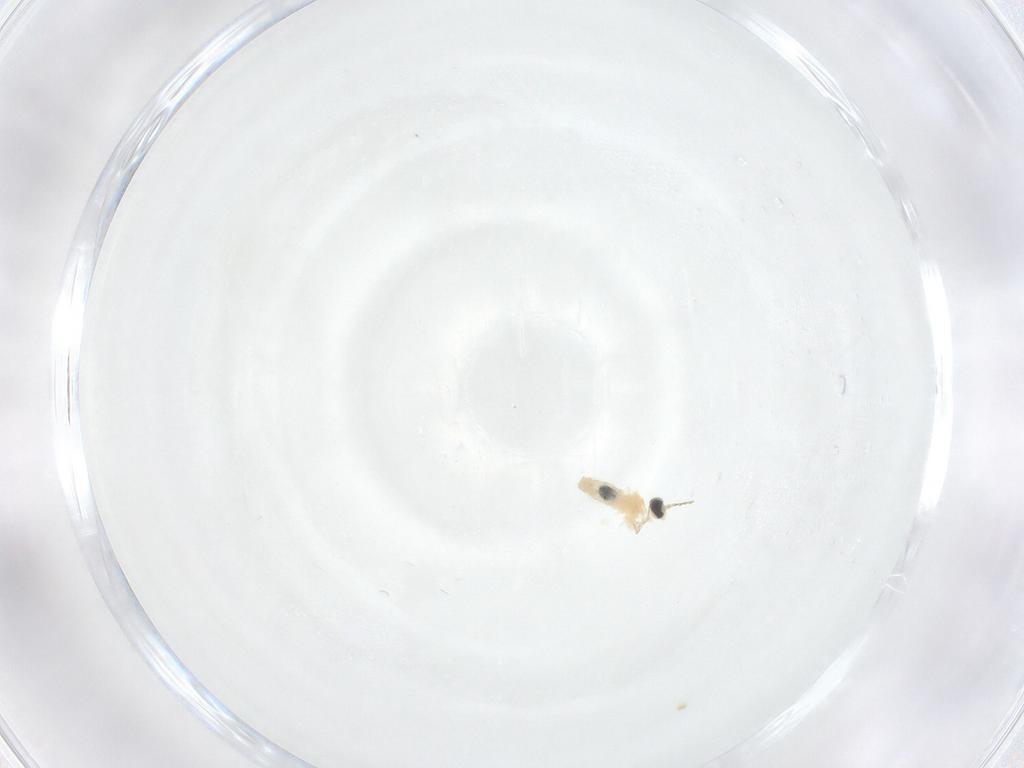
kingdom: Animalia
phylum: Arthropoda
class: Insecta
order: Diptera
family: Cecidomyiidae
